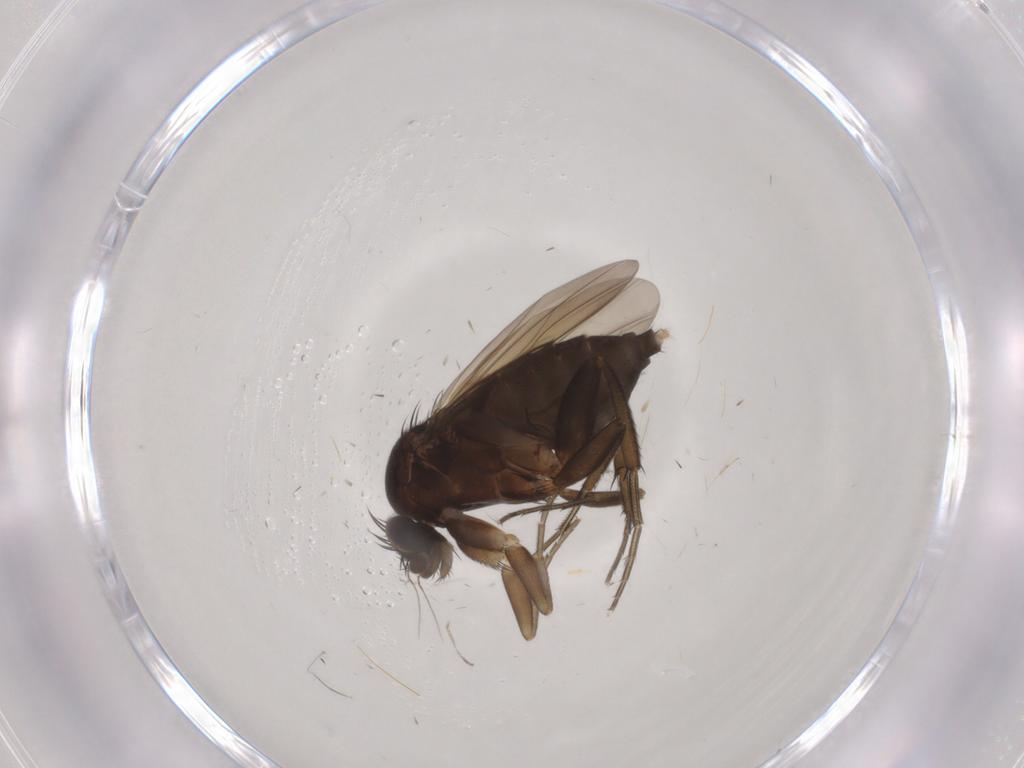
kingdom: Animalia
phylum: Arthropoda
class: Insecta
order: Diptera
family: Phoridae
